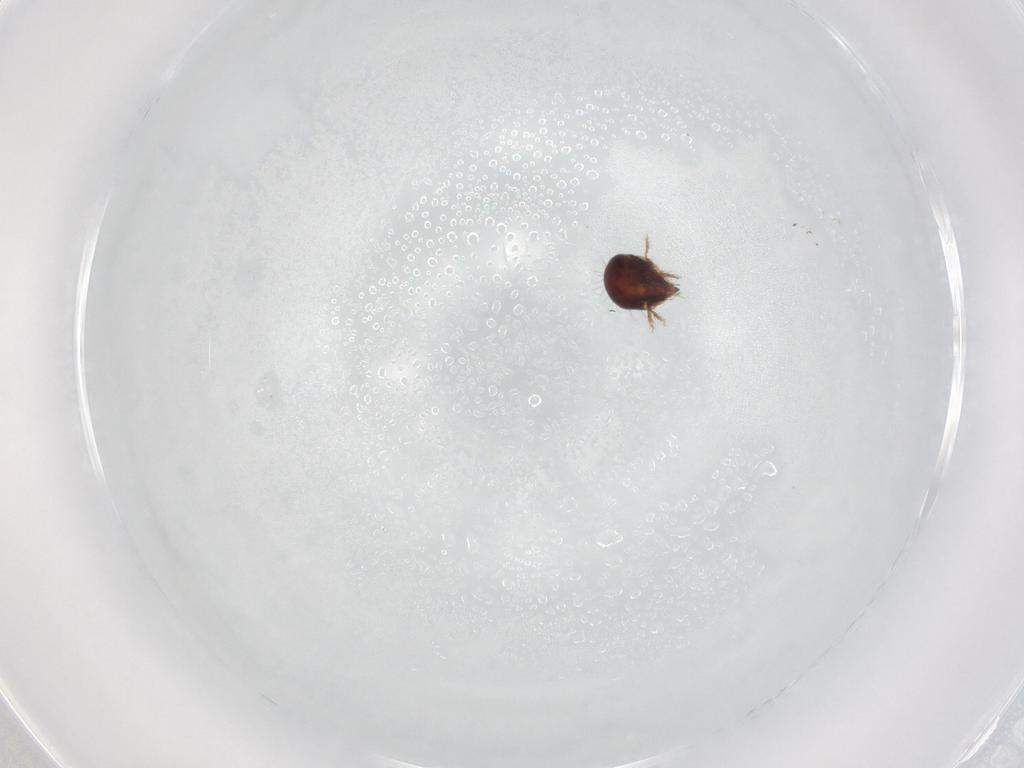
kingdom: Animalia
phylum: Arthropoda
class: Arachnida
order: Sarcoptiformes
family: Humerobatidae
